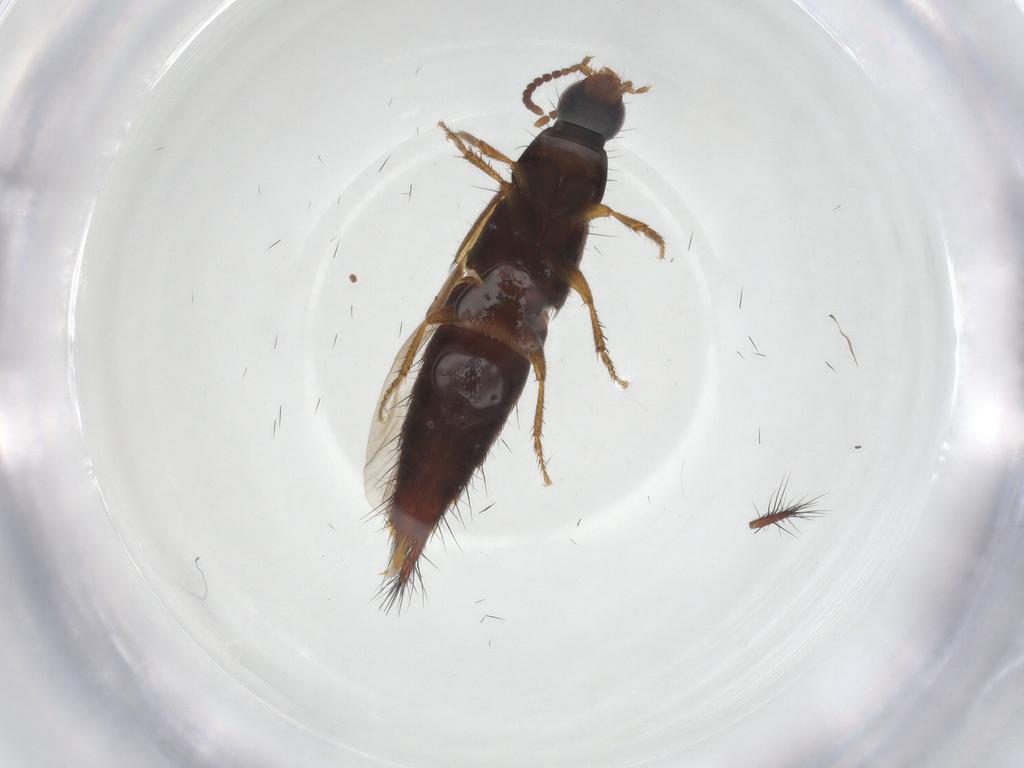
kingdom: Animalia
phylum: Arthropoda
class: Insecta
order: Coleoptera
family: Staphylinidae
